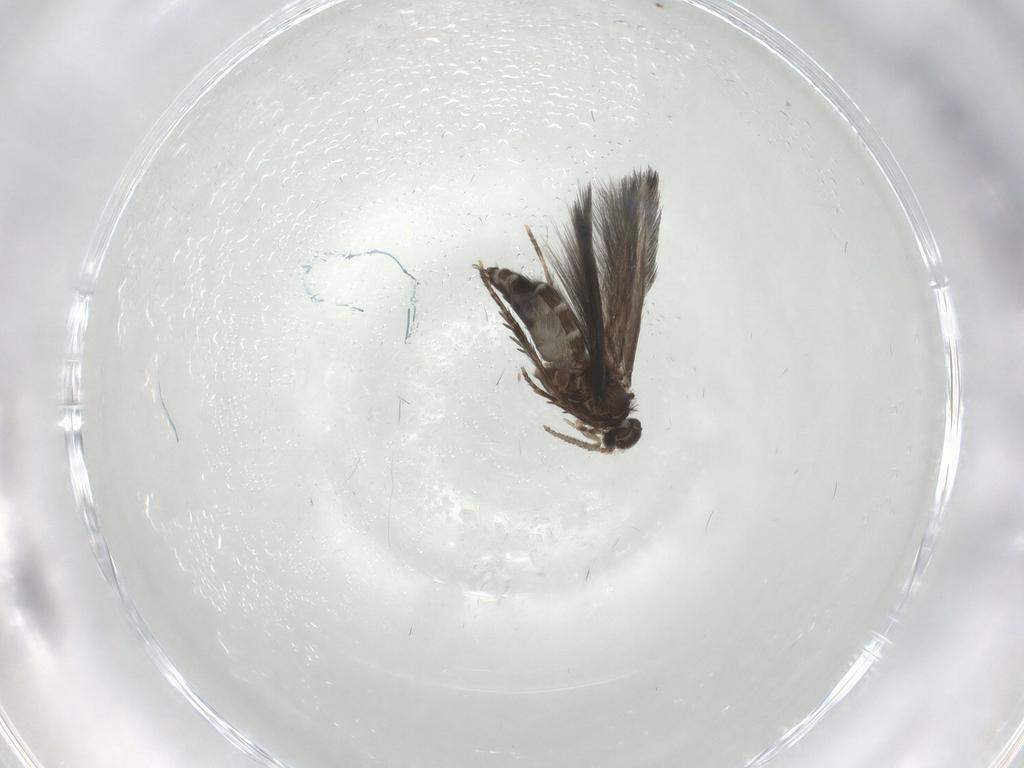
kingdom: Animalia
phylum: Arthropoda
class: Insecta
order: Trichoptera
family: Hydroptilidae
